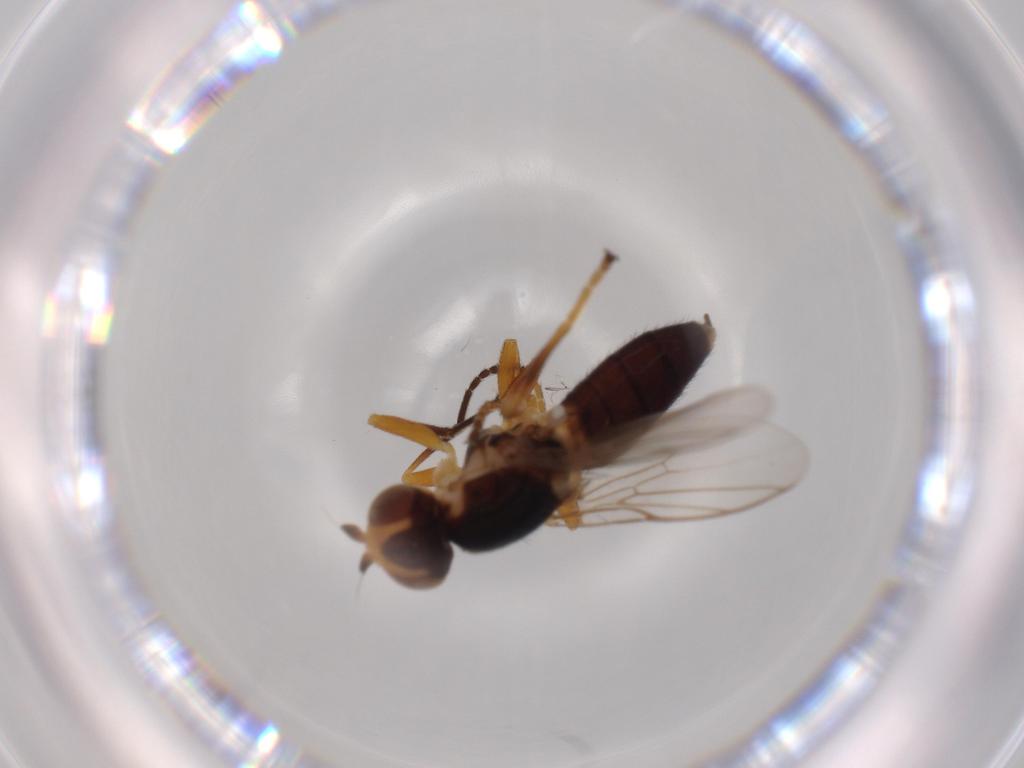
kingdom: Animalia
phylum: Arthropoda
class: Insecta
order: Diptera
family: Chloropidae
